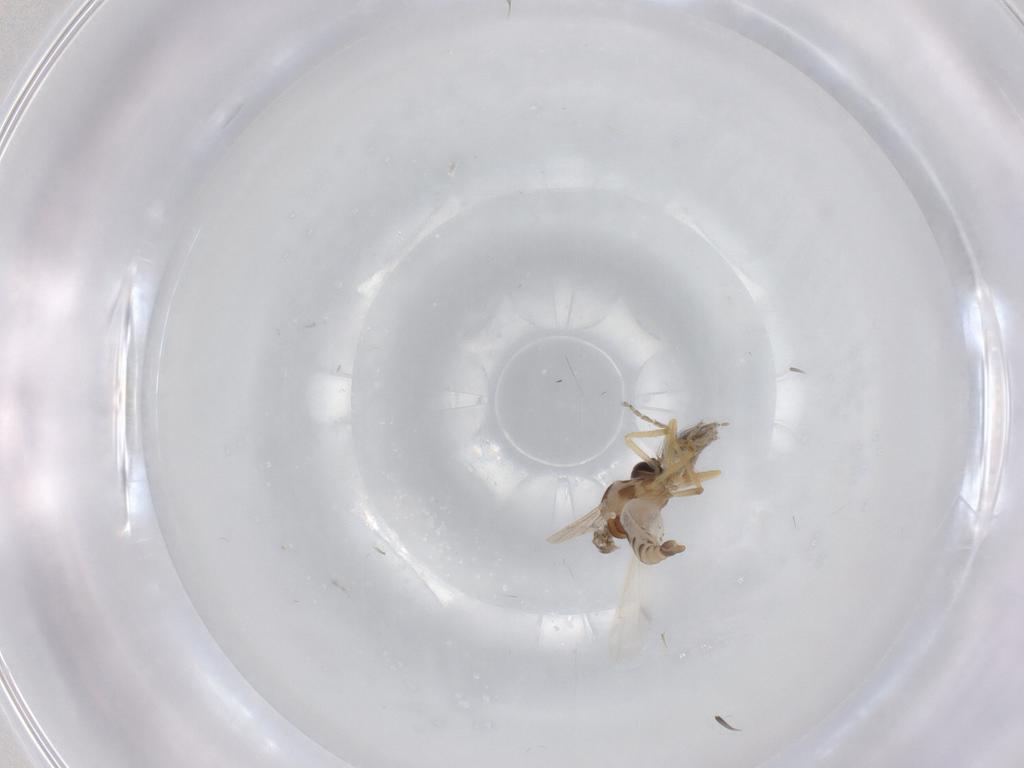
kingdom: Animalia
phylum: Arthropoda
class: Insecta
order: Diptera
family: Ceratopogonidae
